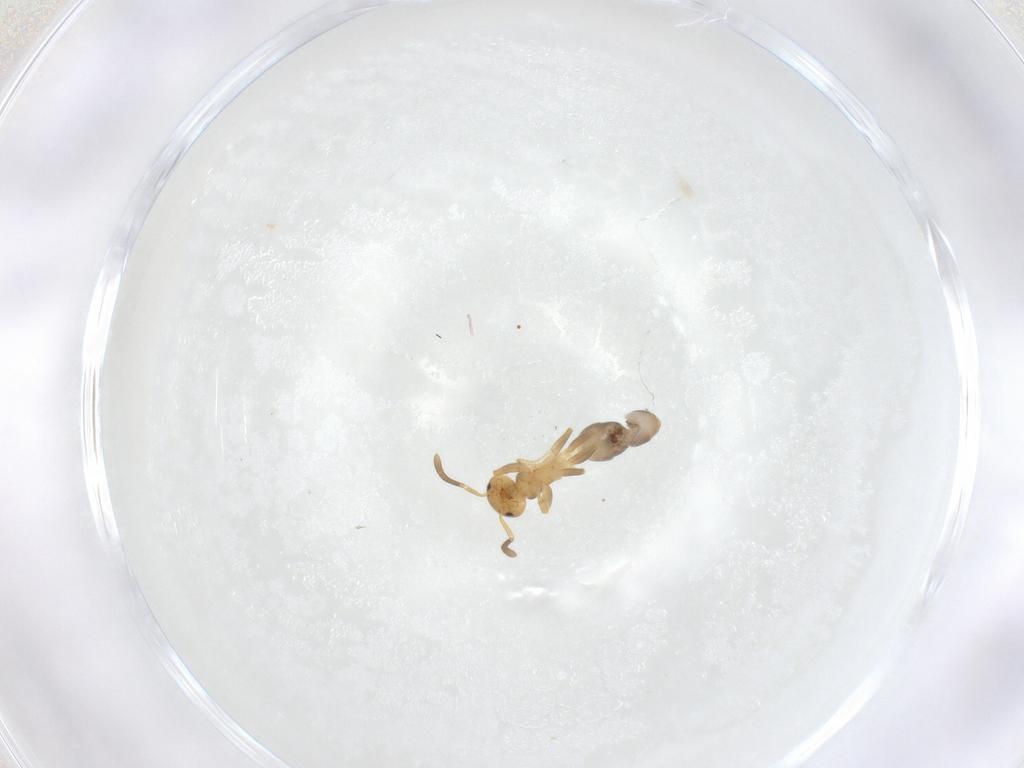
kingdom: Animalia
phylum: Arthropoda
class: Insecta
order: Hymenoptera
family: Formicidae
